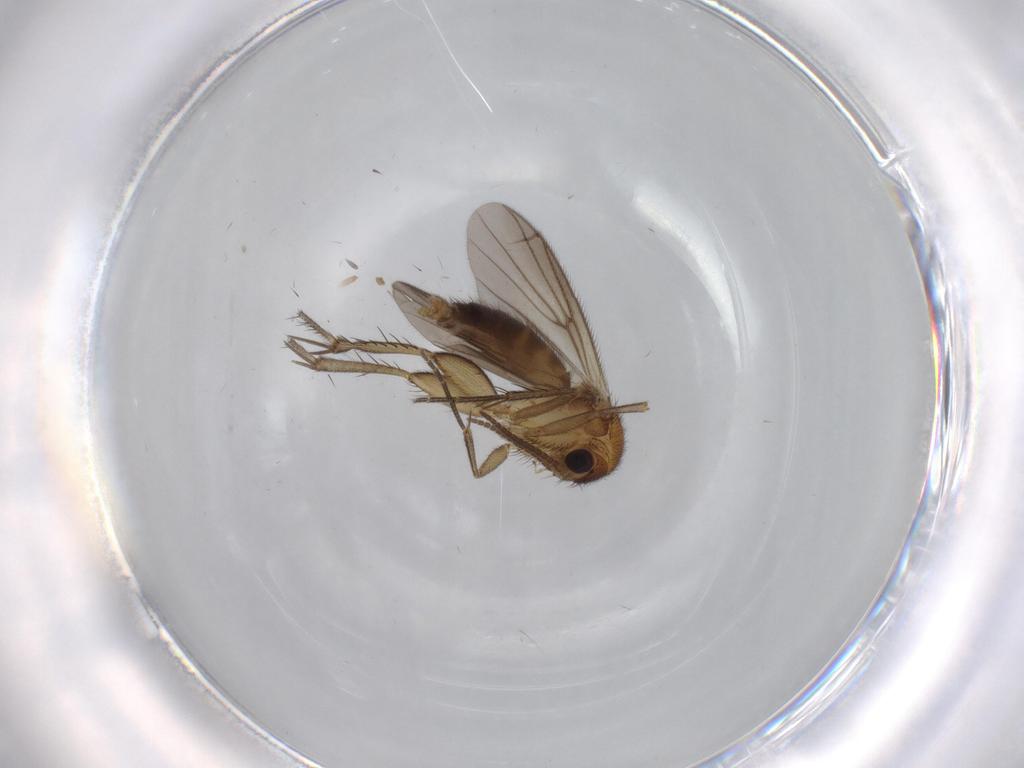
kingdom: Animalia
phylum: Arthropoda
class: Insecta
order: Diptera
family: Mycetophilidae
